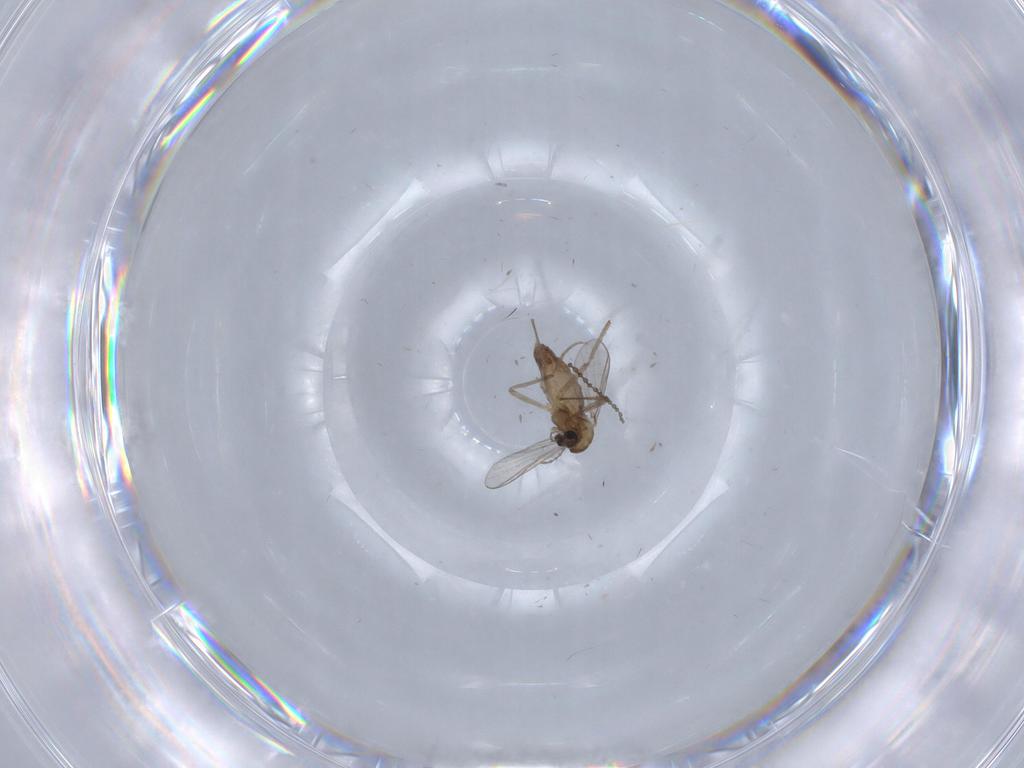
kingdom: Animalia
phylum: Arthropoda
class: Insecta
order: Diptera
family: Chironomidae
